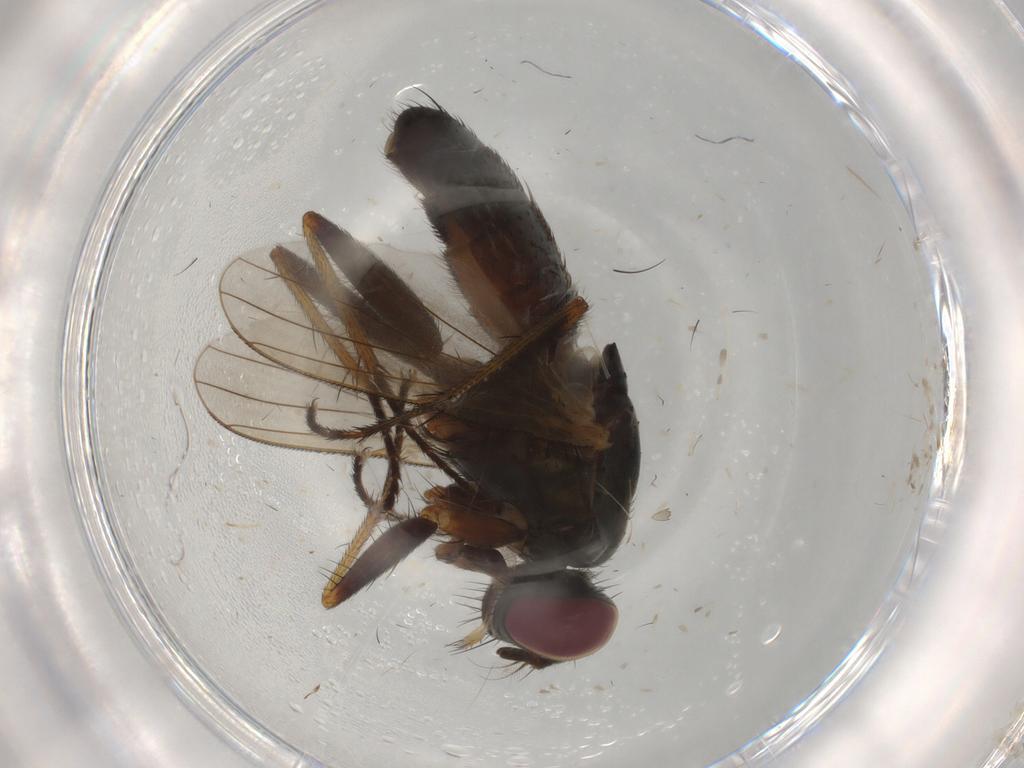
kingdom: Animalia
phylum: Arthropoda
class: Insecta
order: Diptera
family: Muscidae
